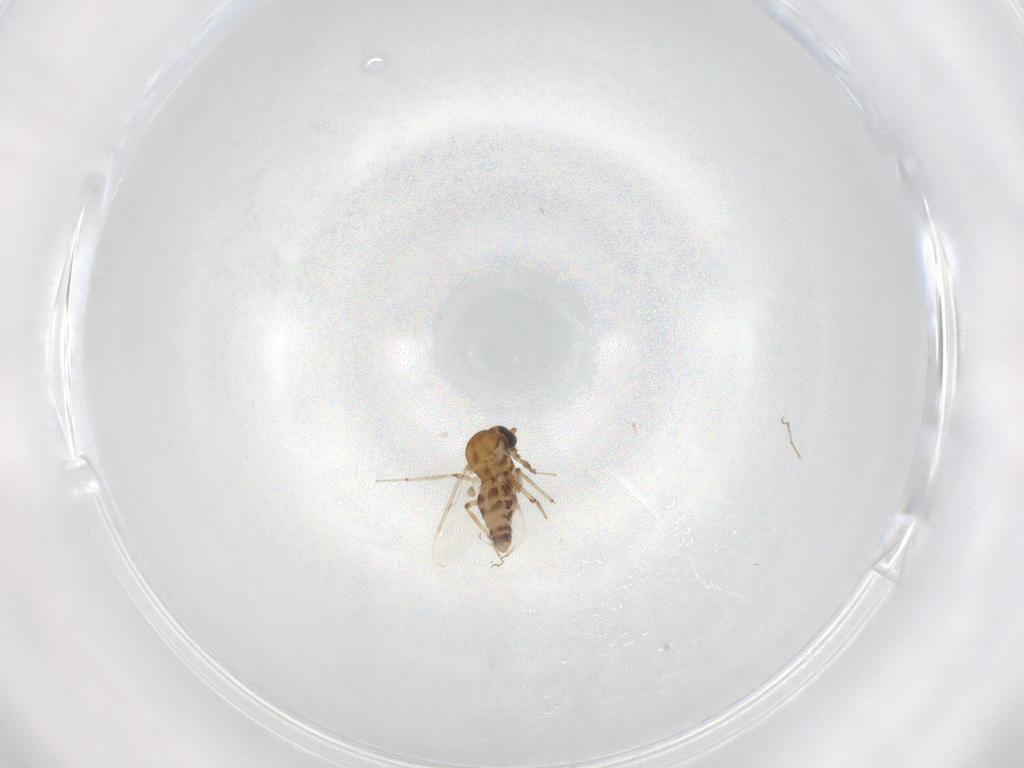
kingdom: Animalia
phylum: Arthropoda
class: Insecta
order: Diptera
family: Ceratopogonidae
